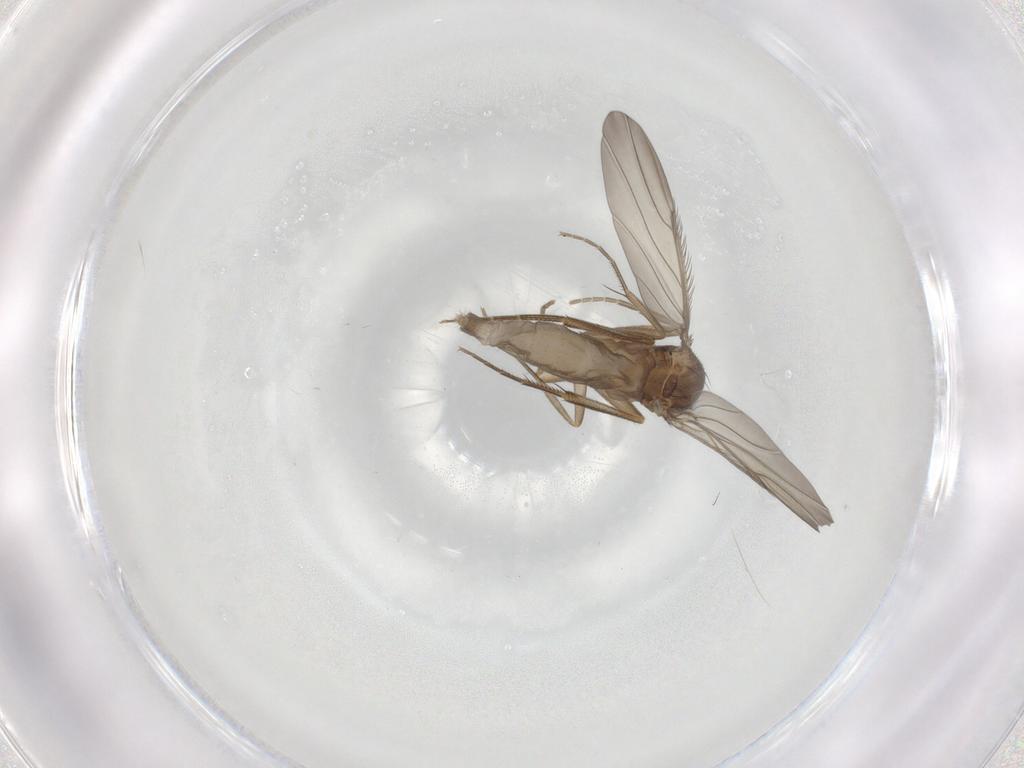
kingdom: Animalia
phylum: Arthropoda
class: Insecta
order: Diptera
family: Phoridae
